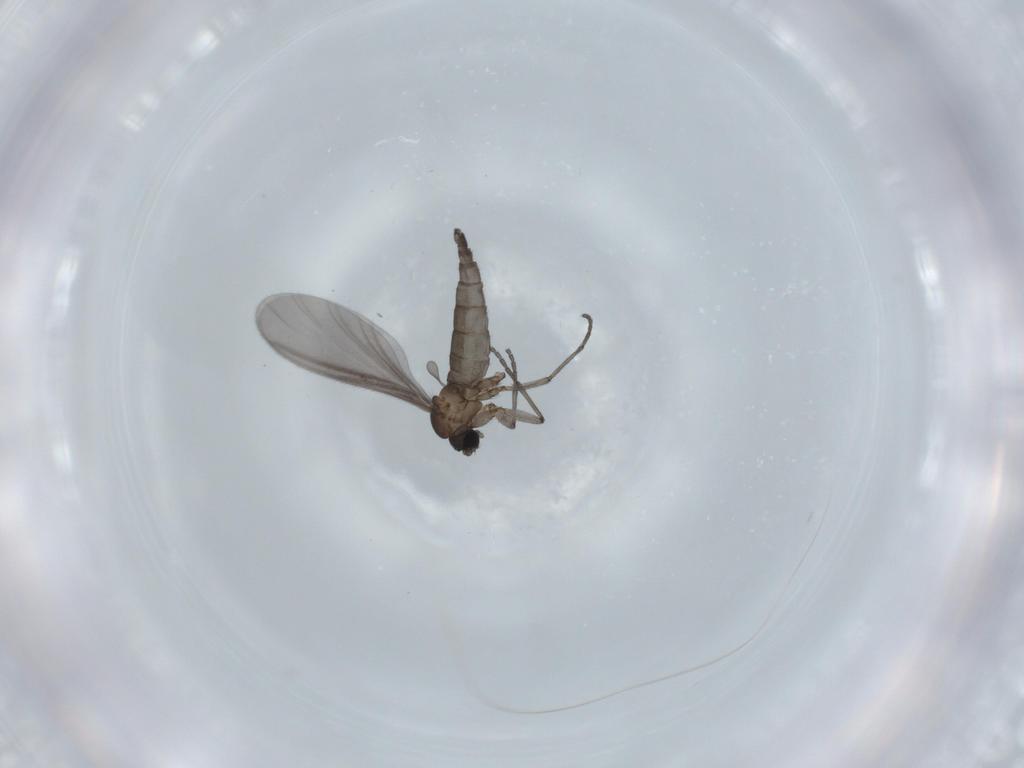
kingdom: Animalia
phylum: Arthropoda
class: Insecta
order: Diptera
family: Sciaridae
